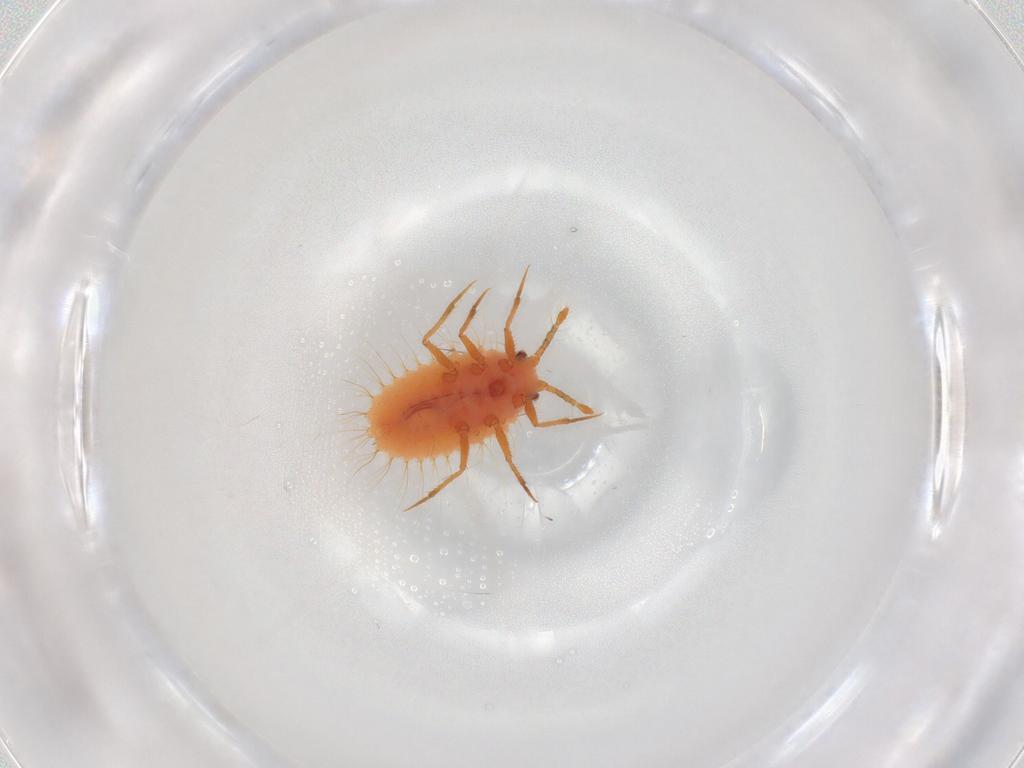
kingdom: Animalia
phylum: Arthropoda
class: Insecta
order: Hemiptera
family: Coccoidea_incertae_sedis
